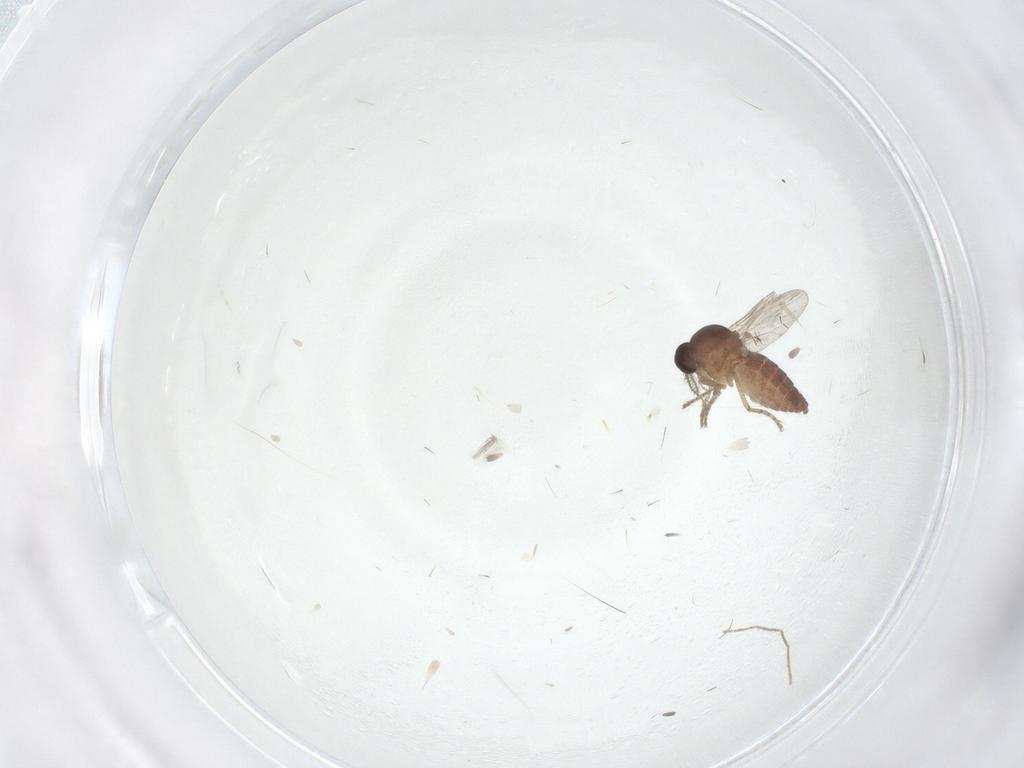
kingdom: Animalia
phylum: Arthropoda
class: Insecta
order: Diptera
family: Ceratopogonidae
